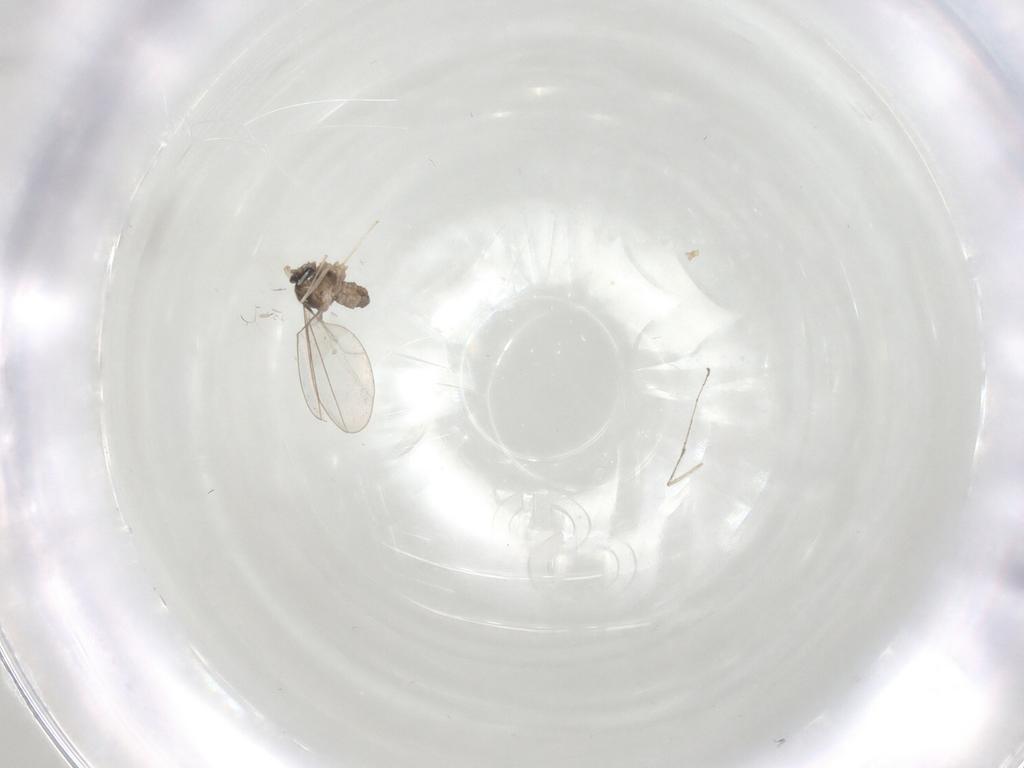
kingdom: Animalia
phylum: Arthropoda
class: Insecta
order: Diptera
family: Cecidomyiidae
